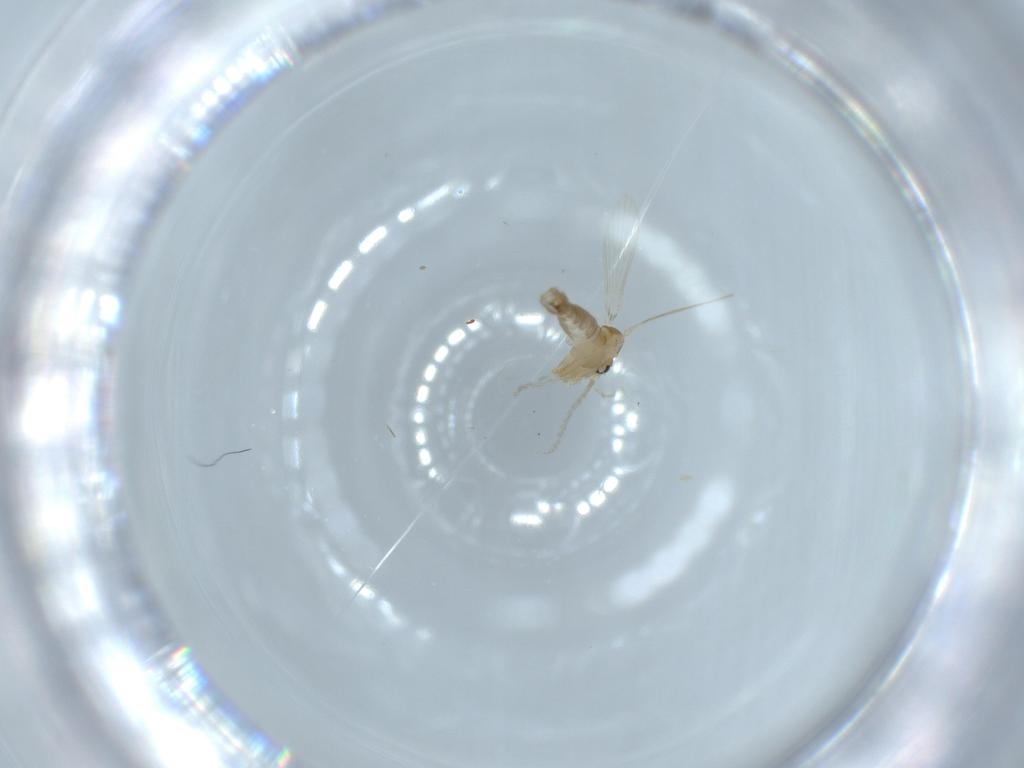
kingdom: Animalia
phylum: Arthropoda
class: Insecta
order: Diptera
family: Psychodidae
